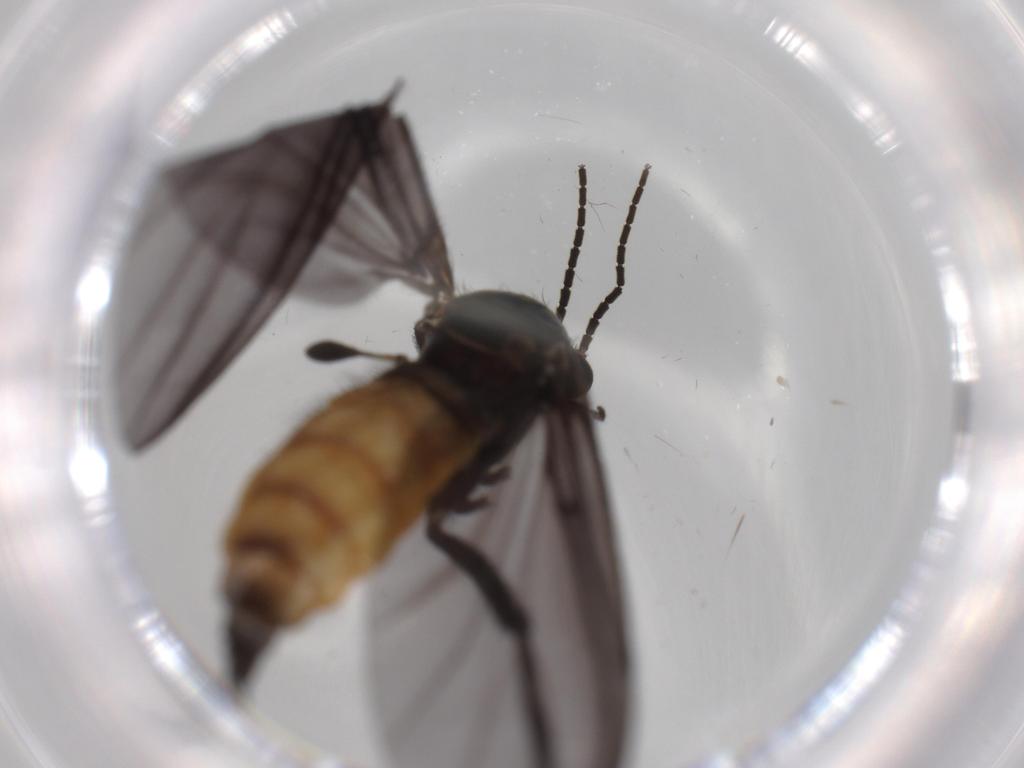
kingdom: Animalia
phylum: Arthropoda
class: Insecta
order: Diptera
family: Sciaridae
